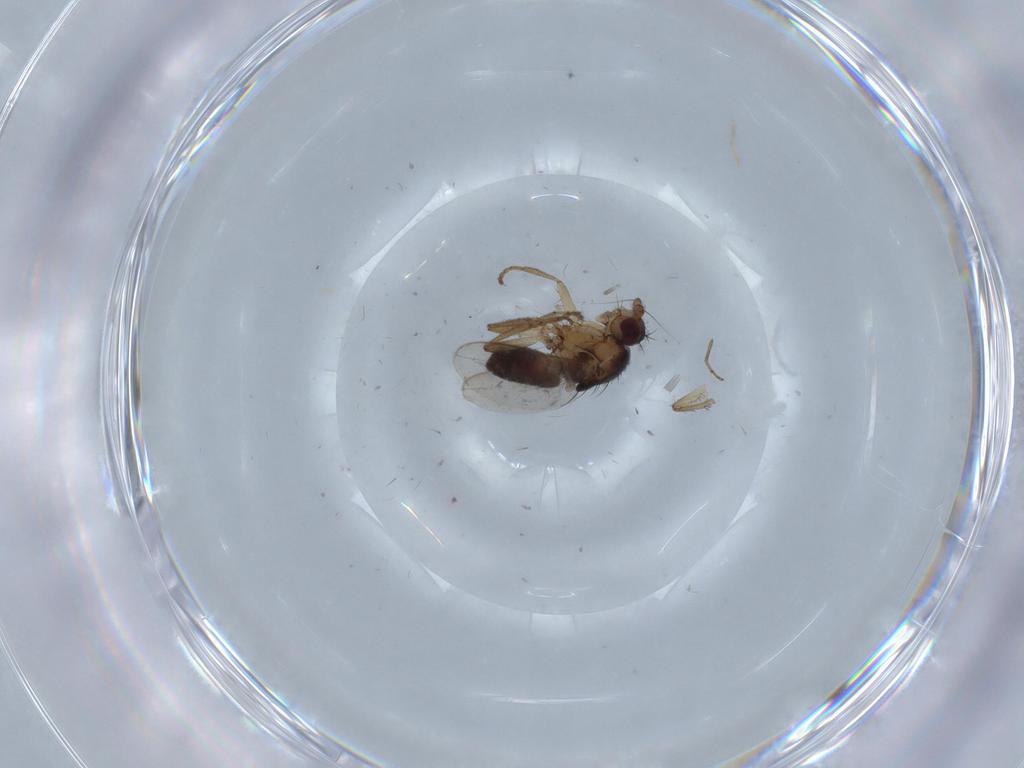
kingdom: Animalia
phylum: Arthropoda
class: Insecta
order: Diptera
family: Sphaeroceridae
